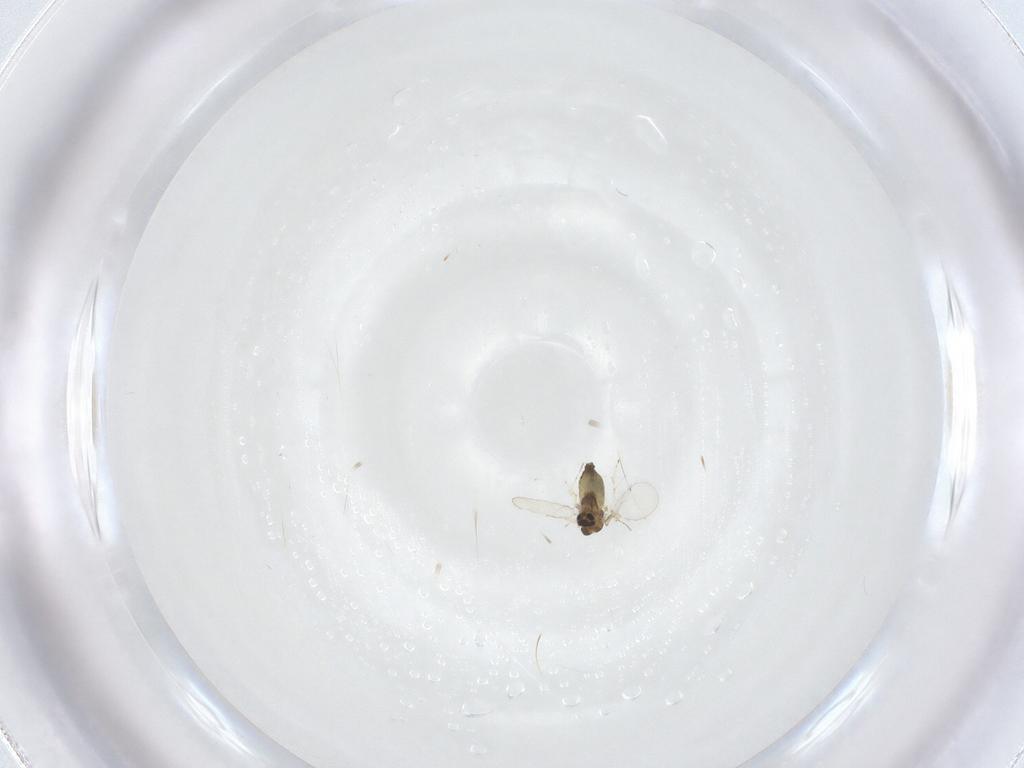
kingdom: Animalia
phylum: Arthropoda
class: Insecta
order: Diptera
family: Chironomidae
